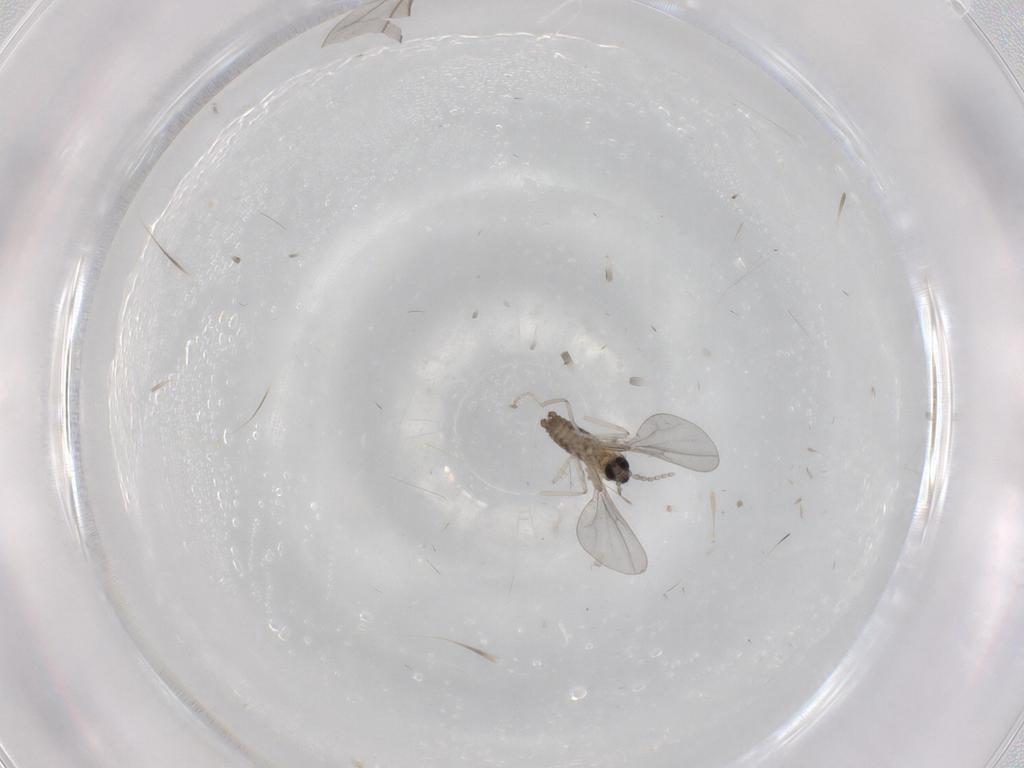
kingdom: Animalia
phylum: Arthropoda
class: Insecta
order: Diptera
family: Cecidomyiidae
